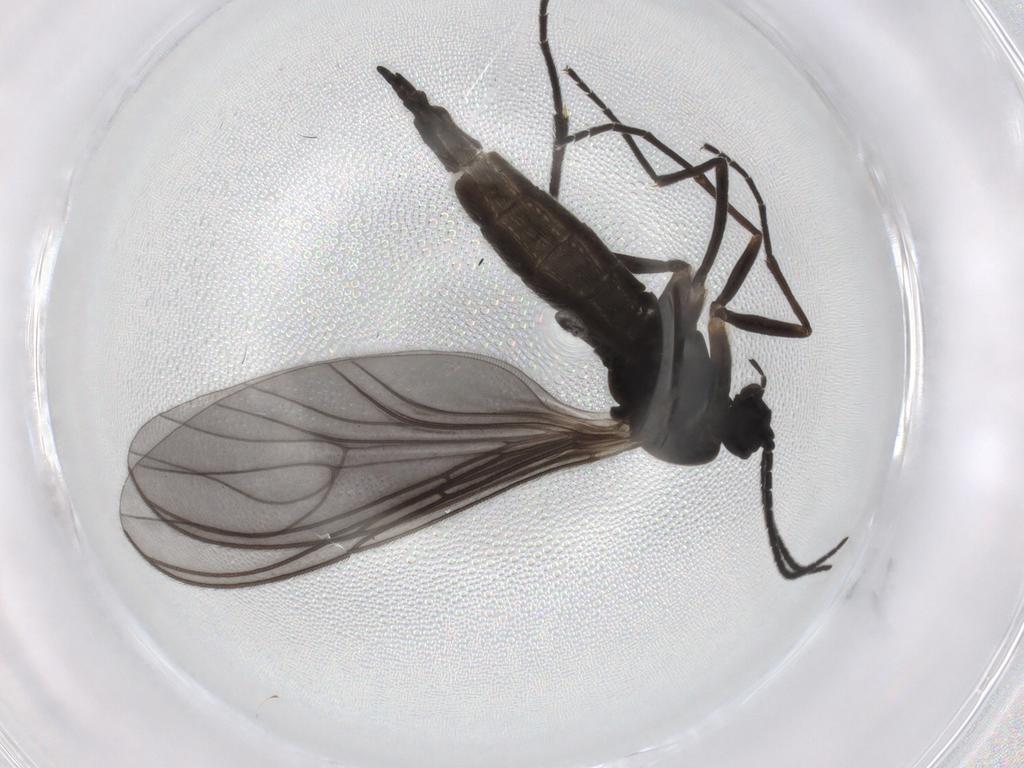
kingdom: Animalia
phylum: Arthropoda
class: Insecta
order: Diptera
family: Sciaridae
